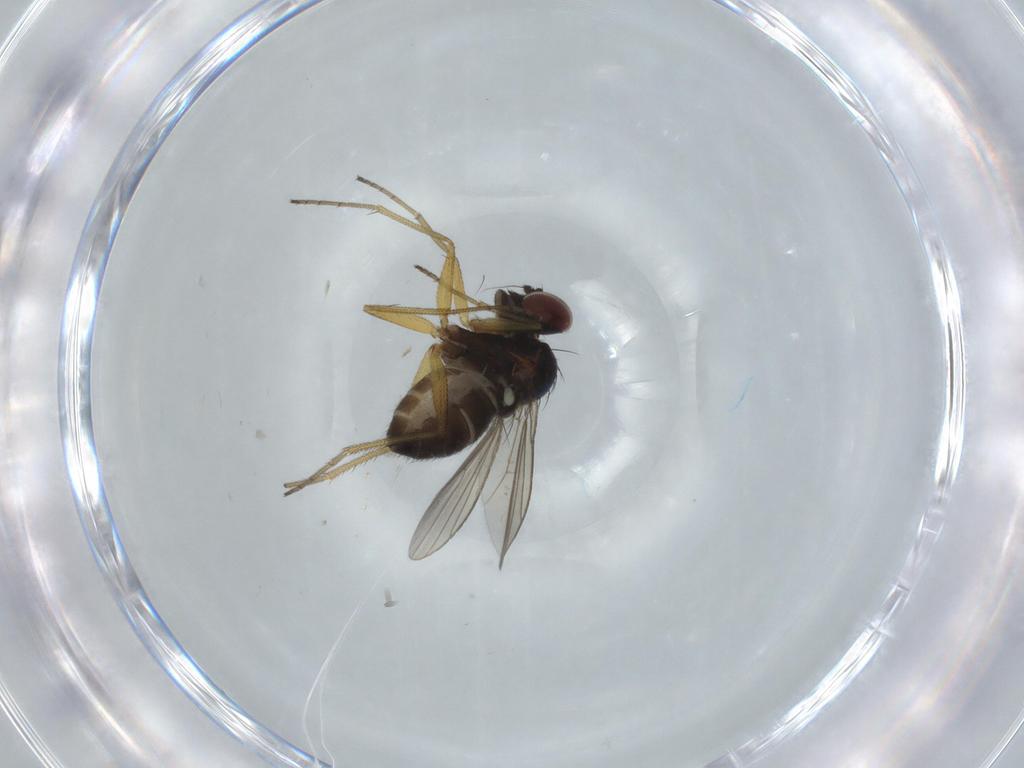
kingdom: Animalia
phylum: Arthropoda
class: Insecta
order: Diptera
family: Dolichopodidae
